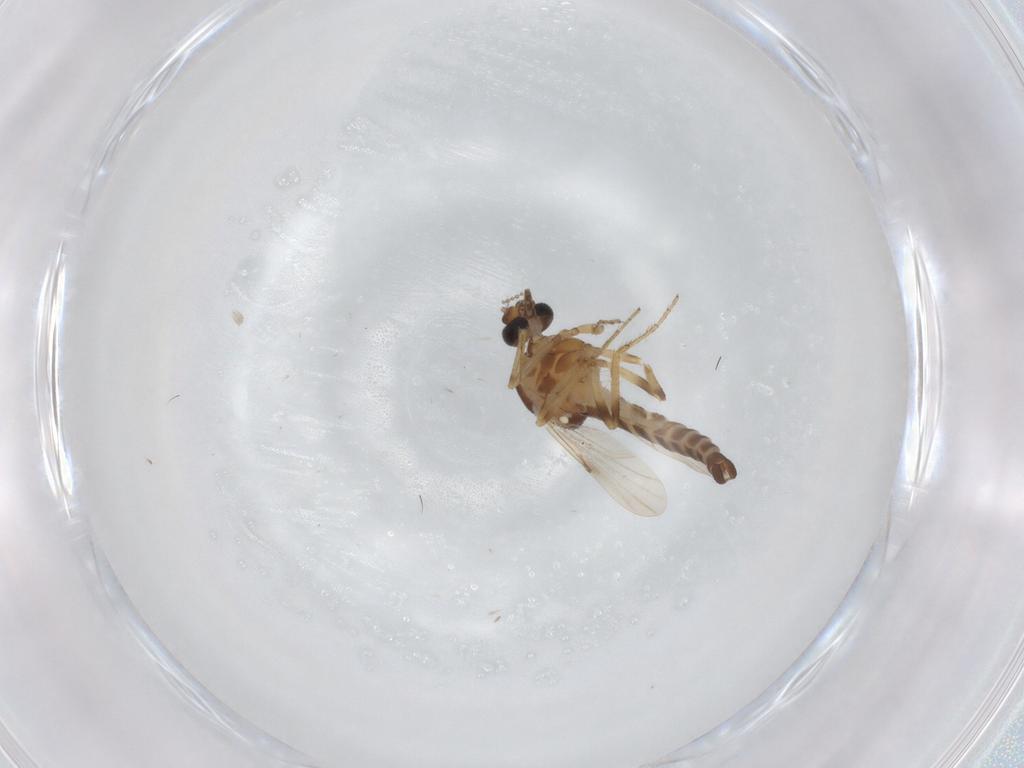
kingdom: Animalia
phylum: Arthropoda
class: Insecta
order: Diptera
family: Ceratopogonidae
